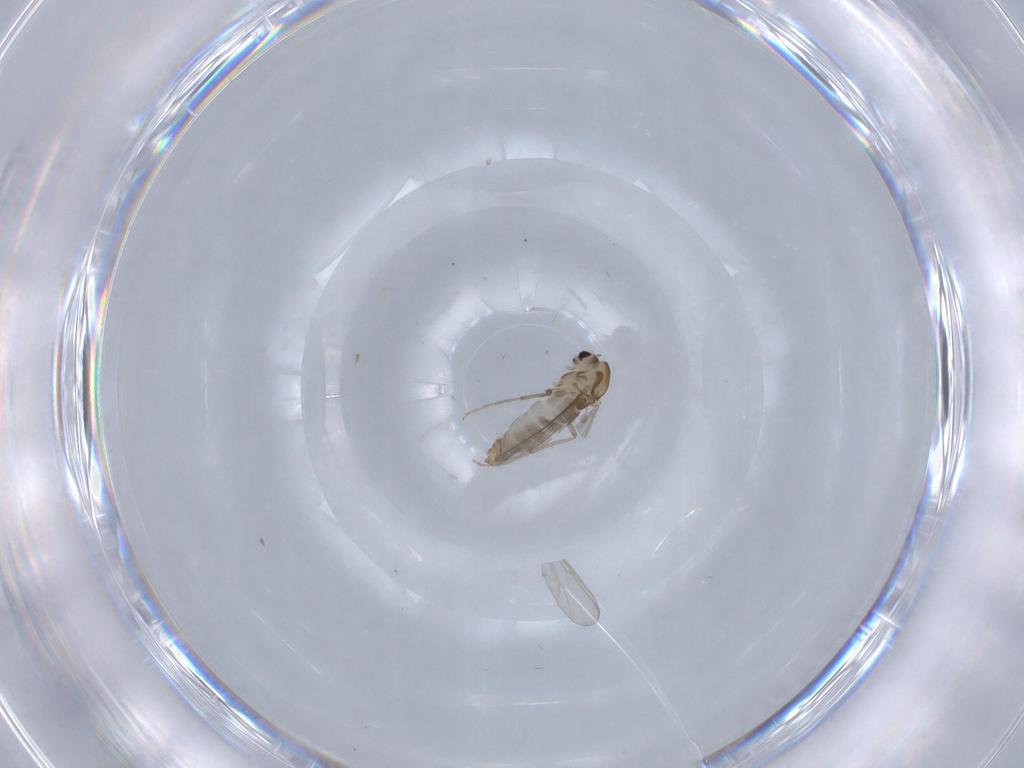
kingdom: Animalia
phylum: Arthropoda
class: Insecta
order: Diptera
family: Chironomidae
